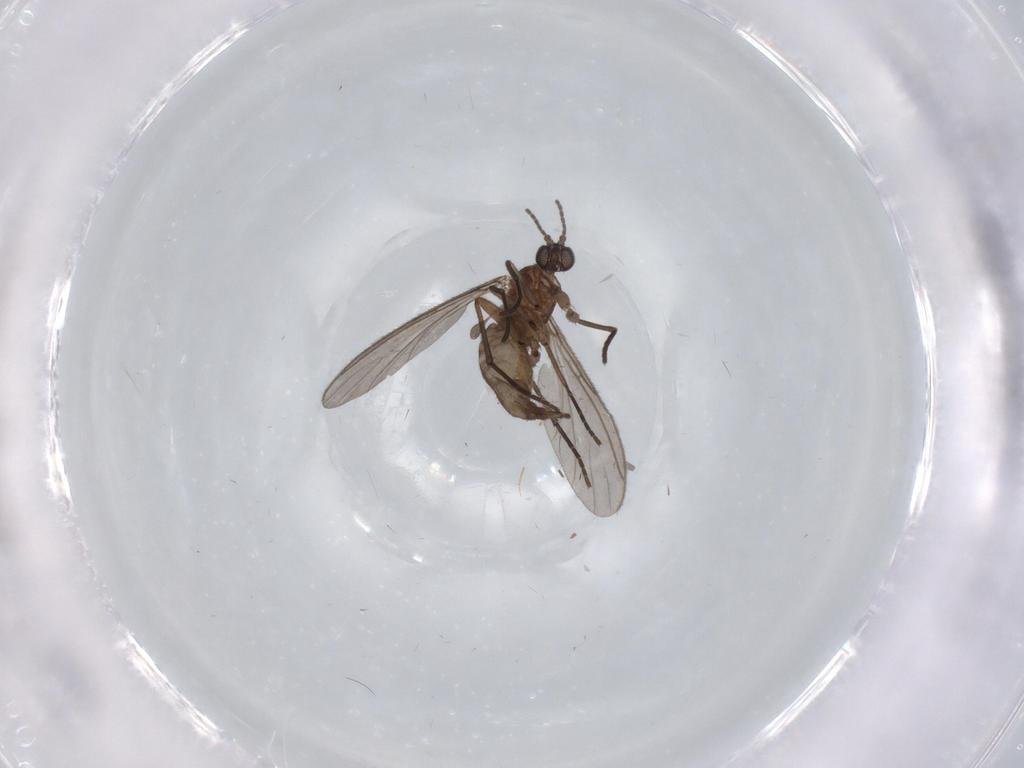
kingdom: Animalia
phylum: Arthropoda
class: Insecta
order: Diptera
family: Sciaridae
